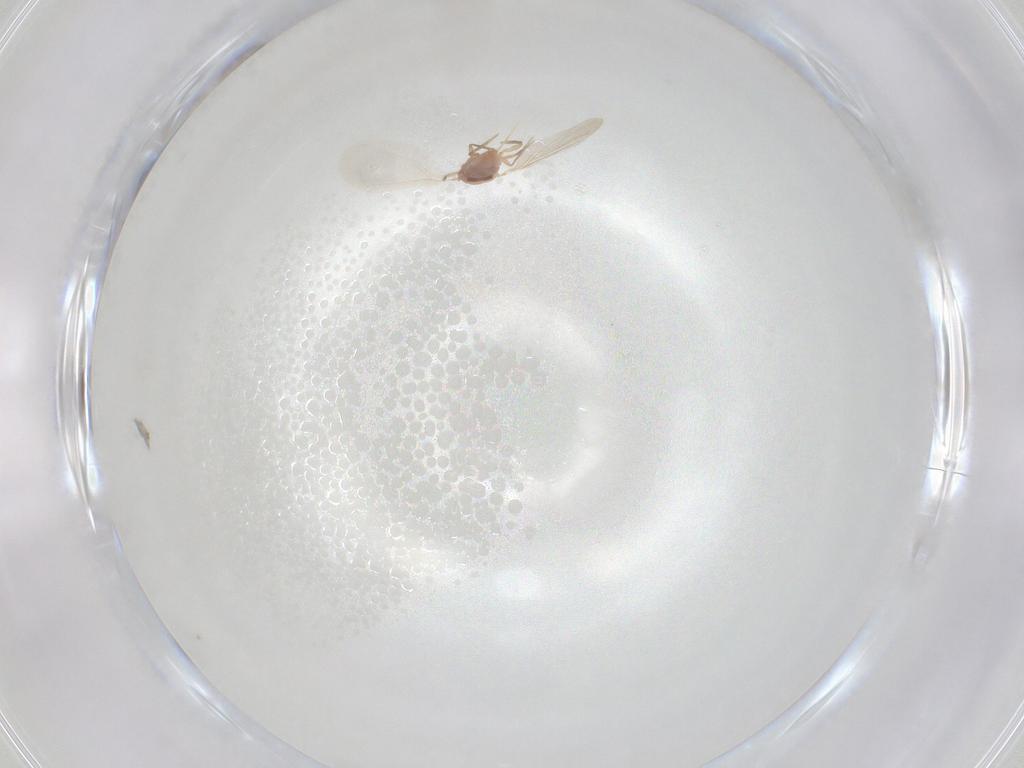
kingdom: Animalia
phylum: Arthropoda
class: Insecta
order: Hemiptera
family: Diaspididae
